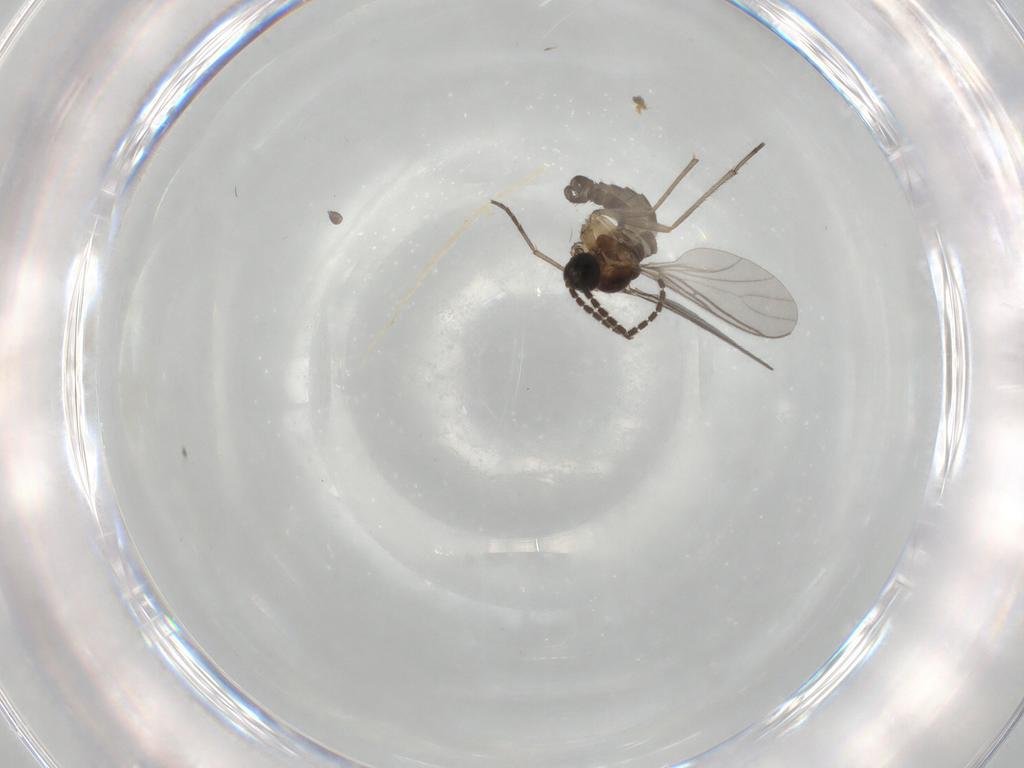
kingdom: Animalia
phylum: Arthropoda
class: Insecta
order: Diptera
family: Sciaridae
